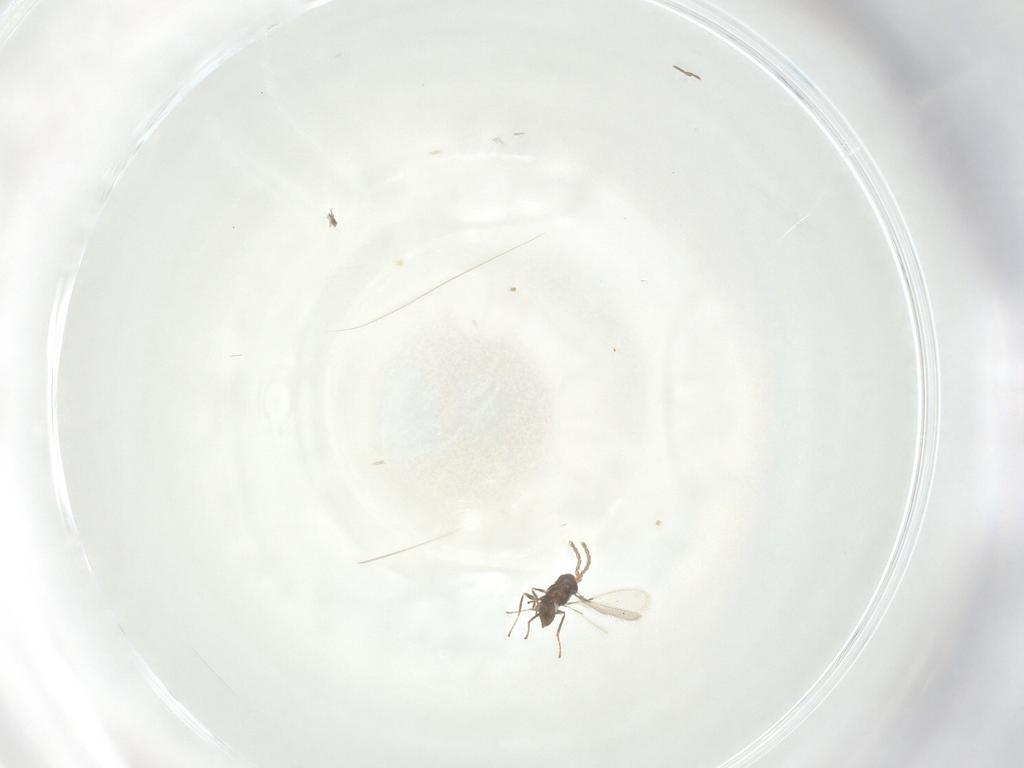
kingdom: Animalia
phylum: Arthropoda
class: Insecta
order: Hymenoptera
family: Mymaridae
